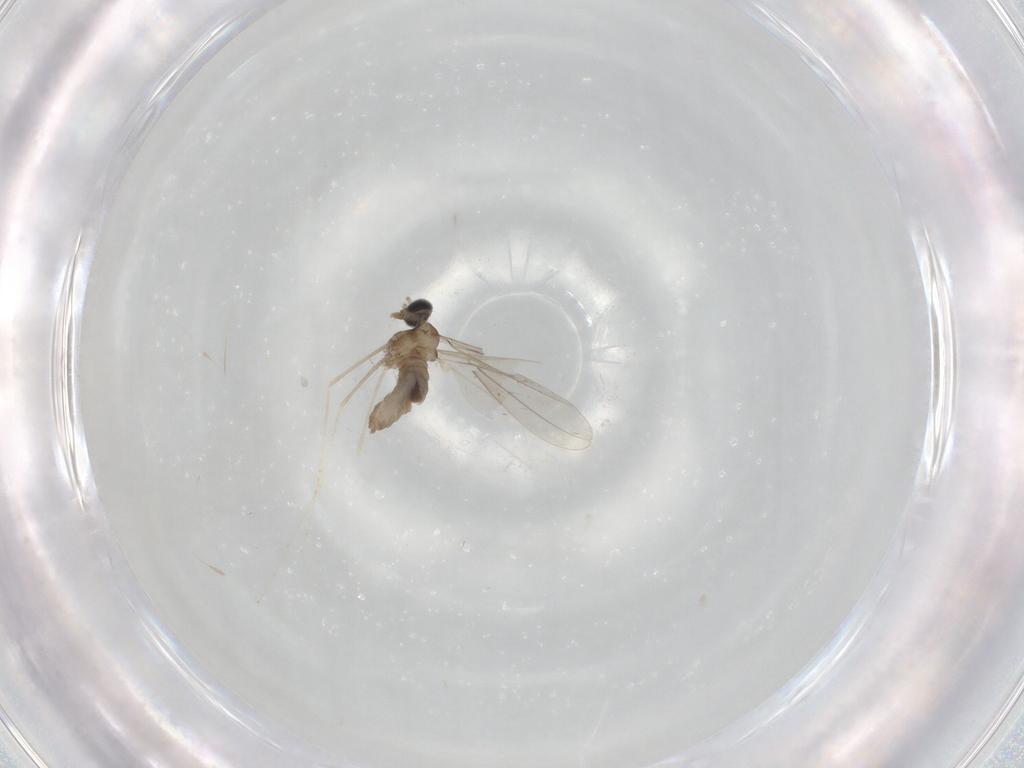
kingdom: Animalia
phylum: Arthropoda
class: Insecta
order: Diptera
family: Cecidomyiidae
